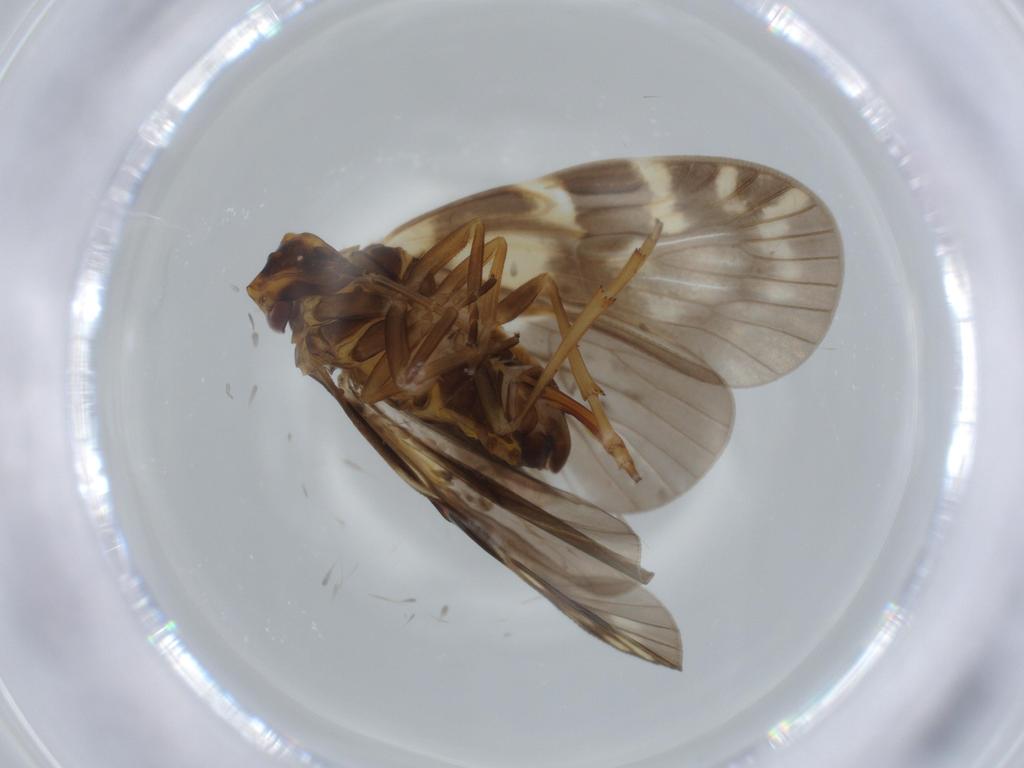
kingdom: Animalia
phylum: Arthropoda
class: Insecta
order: Hemiptera
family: Cixiidae
